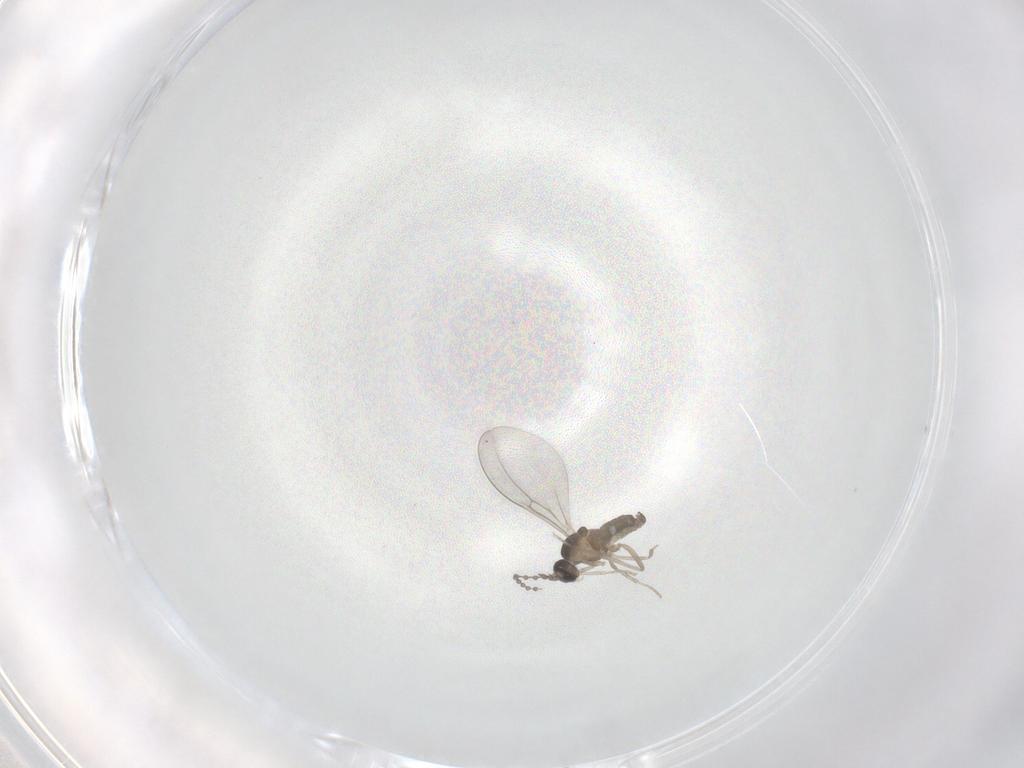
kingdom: Animalia
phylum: Arthropoda
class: Insecta
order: Diptera
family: Cecidomyiidae
